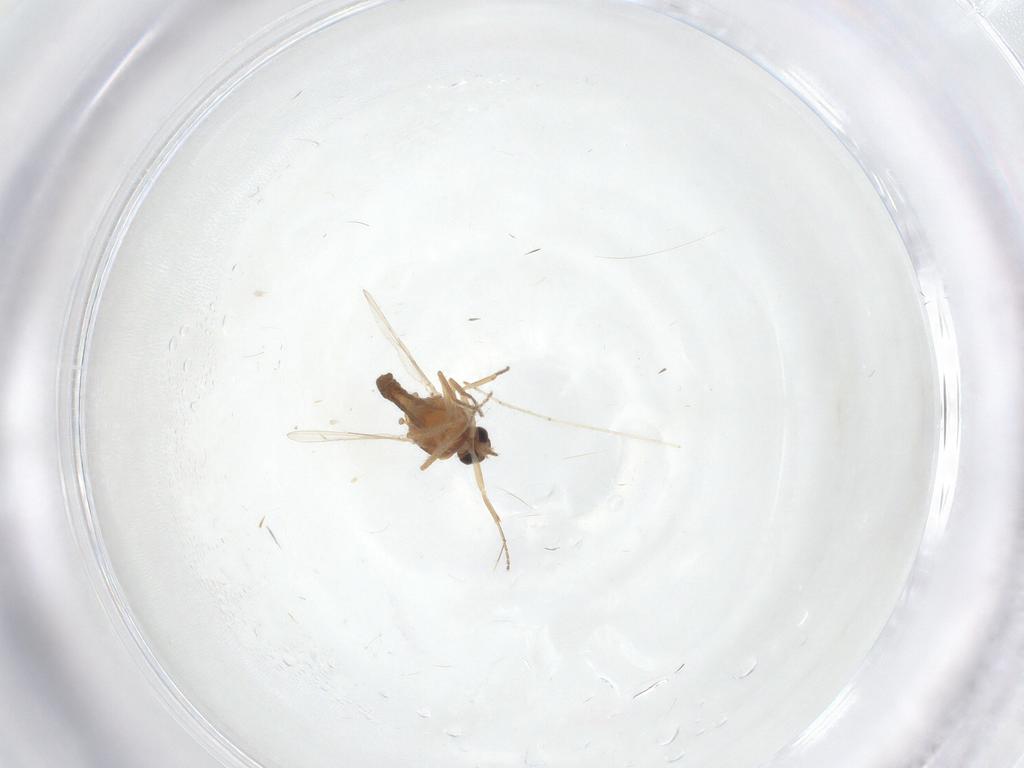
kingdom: Animalia
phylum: Arthropoda
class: Insecta
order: Diptera
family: Ceratopogonidae
